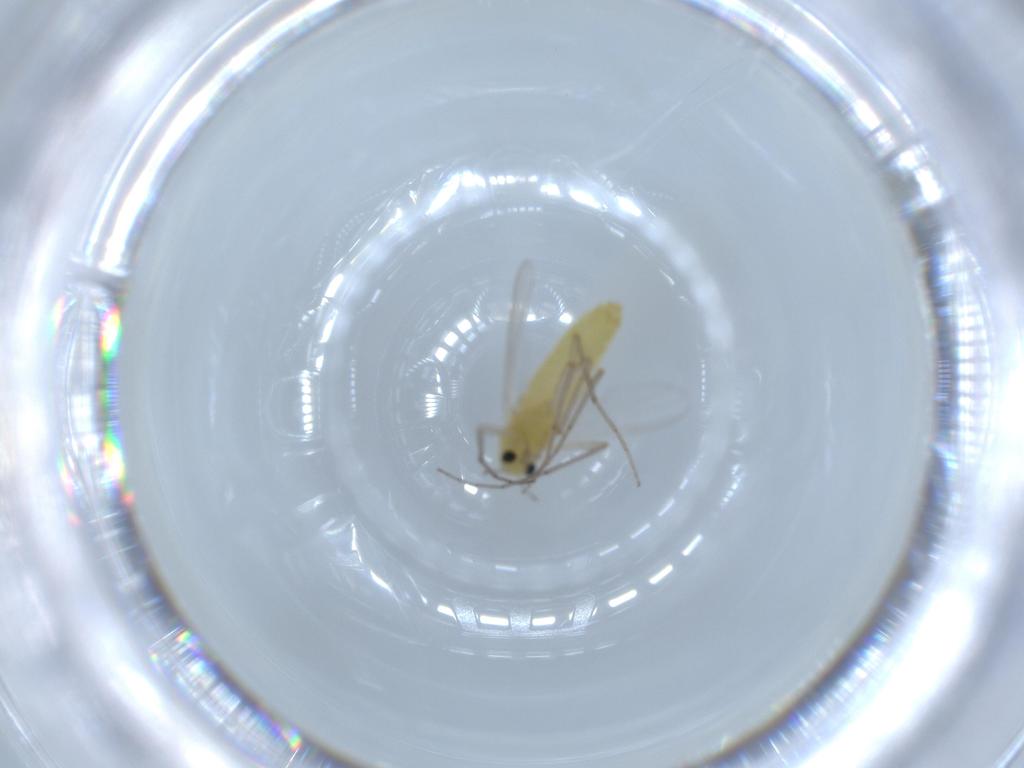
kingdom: Animalia
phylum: Arthropoda
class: Insecta
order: Diptera
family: Chironomidae
